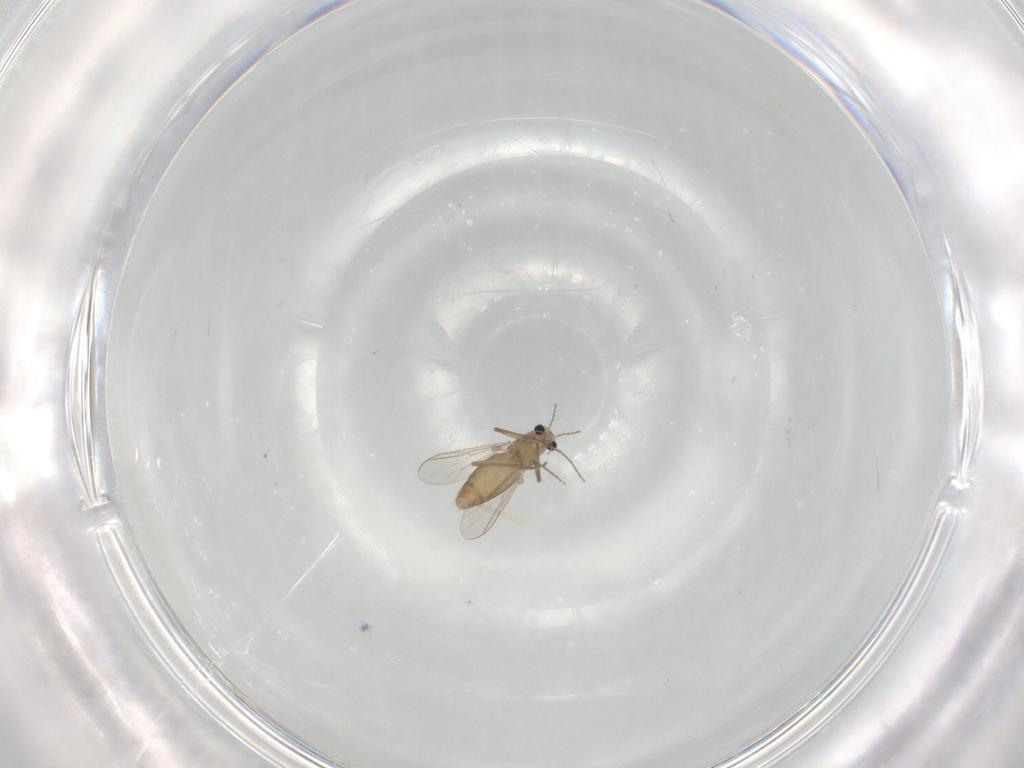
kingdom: Animalia
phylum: Arthropoda
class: Insecta
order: Diptera
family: Chironomidae
